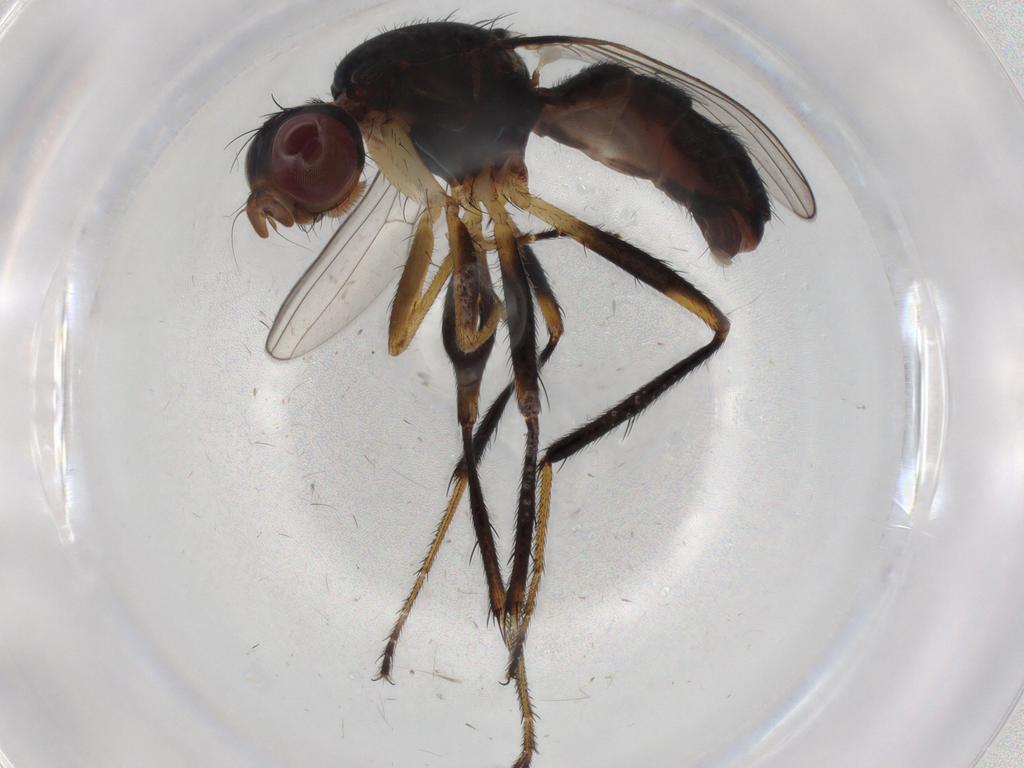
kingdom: Animalia
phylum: Arthropoda
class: Insecta
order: Diptera
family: Sepsidae
